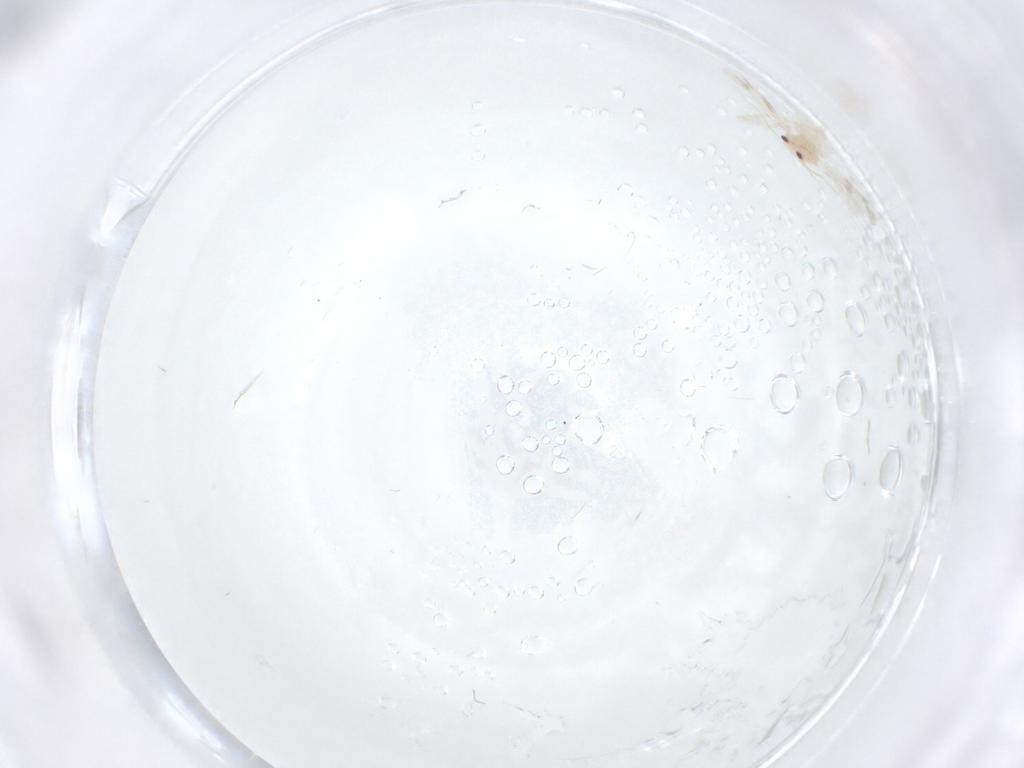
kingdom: Animalia
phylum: Arthropoda
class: Insecta
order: Hemiptera
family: Aleyrodidae
